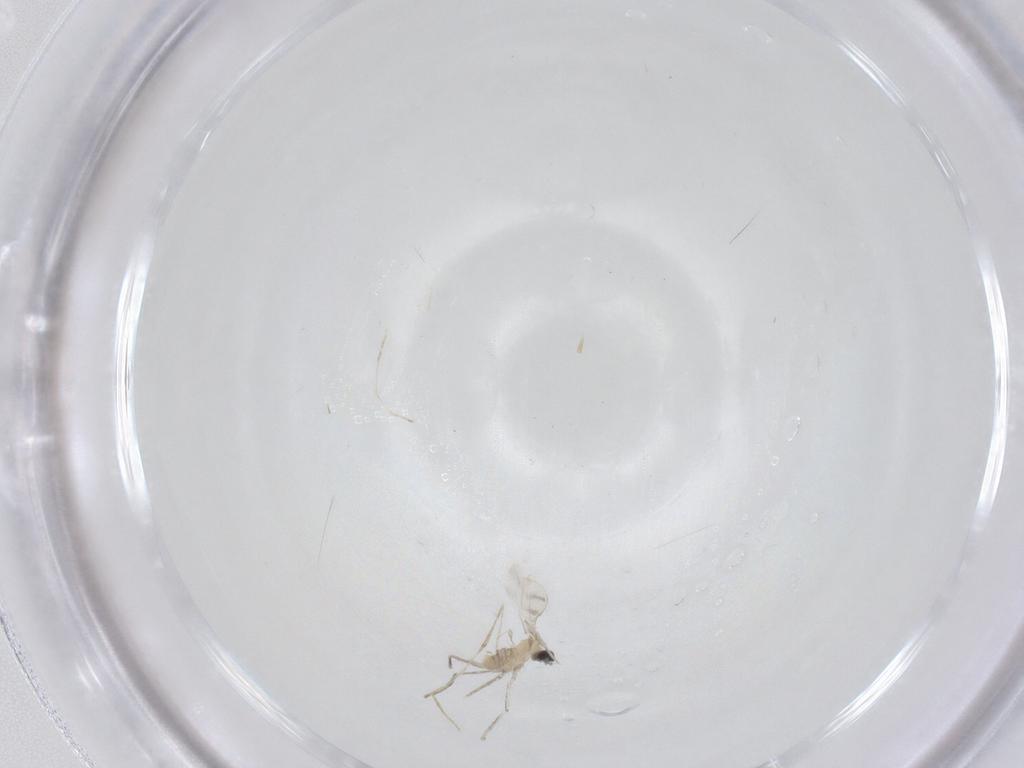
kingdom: Animalia
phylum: Arthropoda
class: Insecta
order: Diptera
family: Cecidomyiidae
